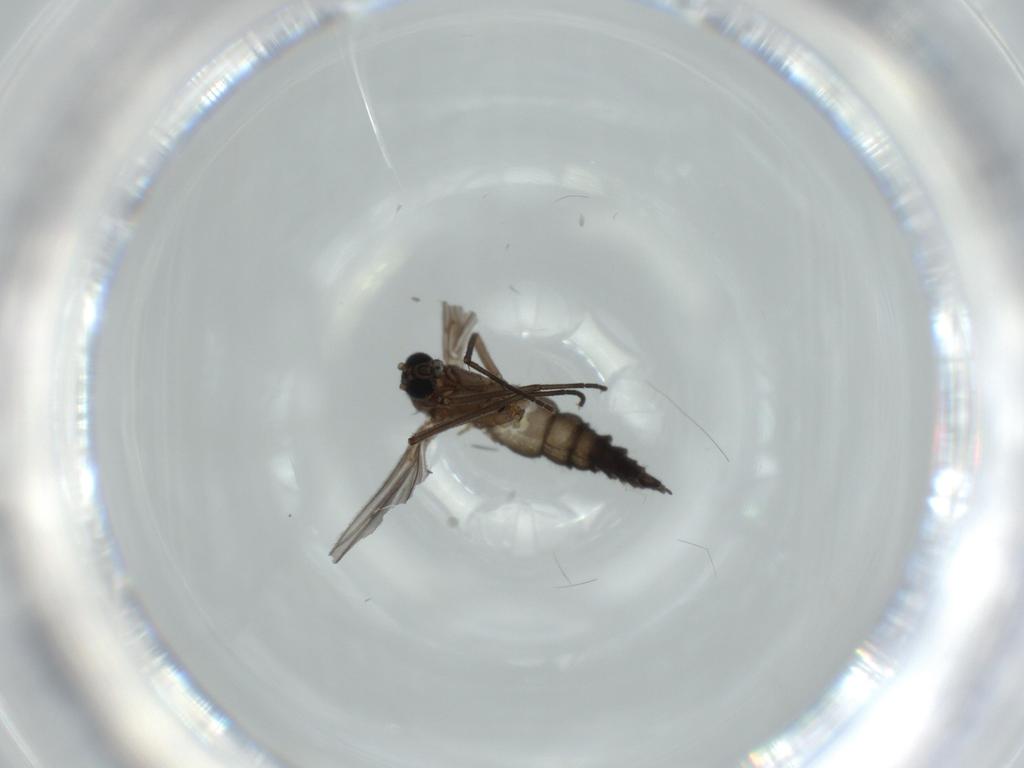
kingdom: Animalia
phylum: Arthropoda
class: Insecta
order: Diptera
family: Sciaridae
